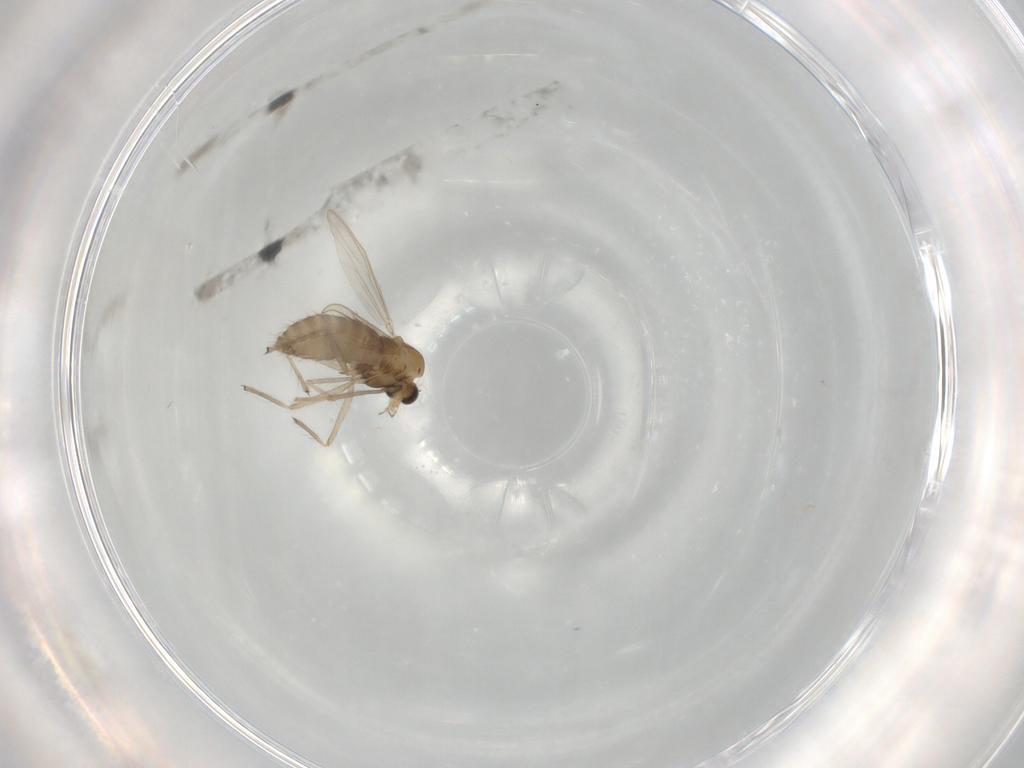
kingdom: Animalia
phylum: Arthropoda
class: Insecta
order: Diptera
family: Chironomidae
